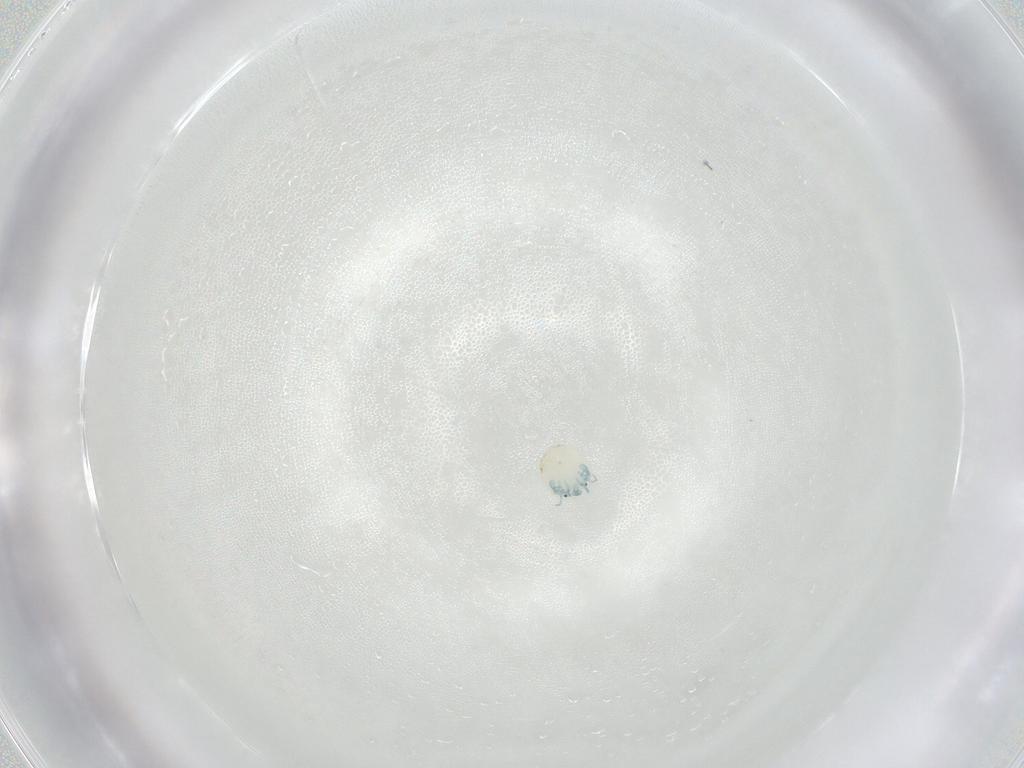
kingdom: Animalia
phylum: Arthropoda
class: Arachnida
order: Trombidiformes
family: Arrenuridae
